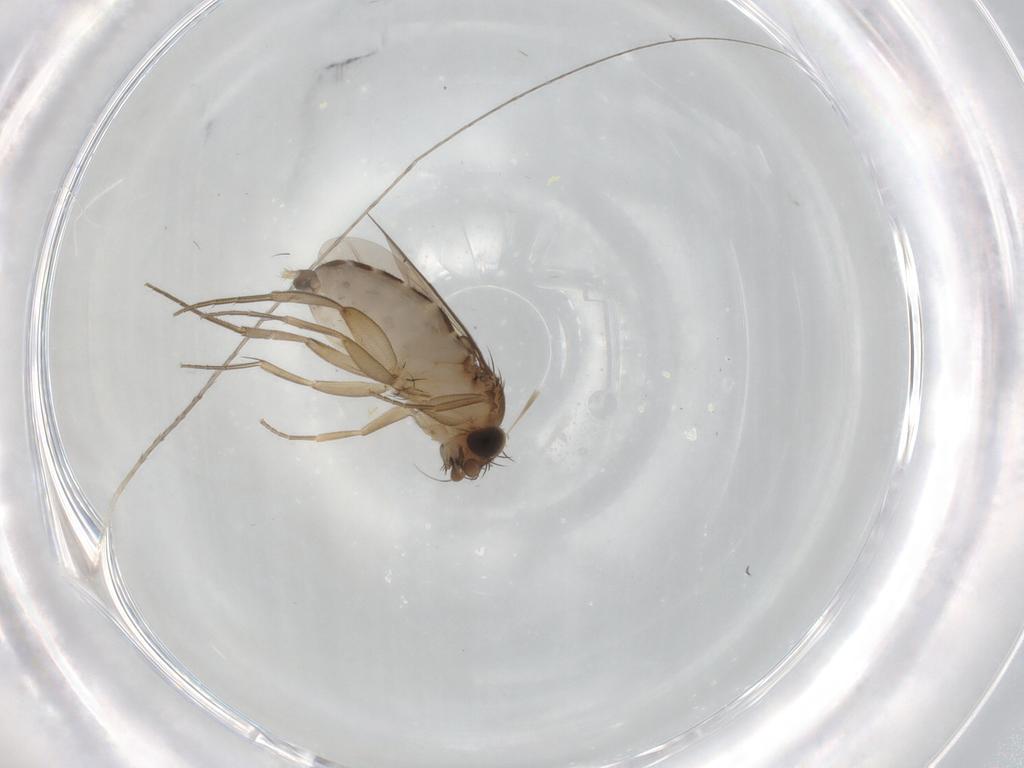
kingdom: Animalia
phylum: Arthropoda
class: Insecta
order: Diptera
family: Phoridae
